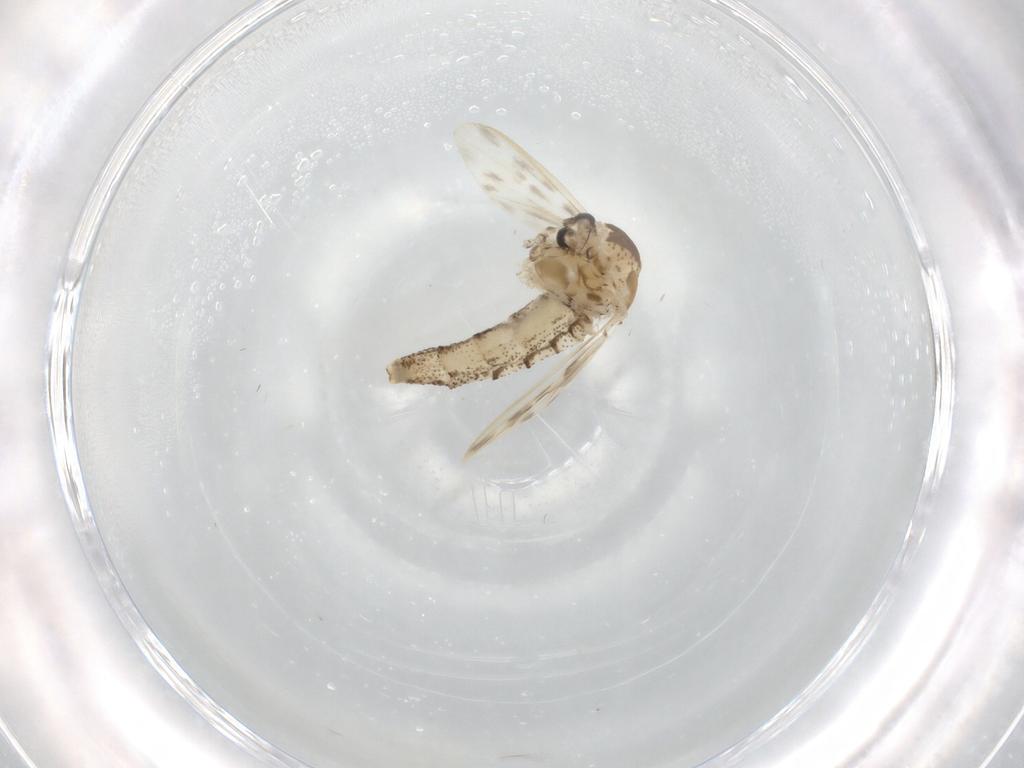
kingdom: Animalia
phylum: Arthropoda
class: Insecta
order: Diptera
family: Chaoboridae
